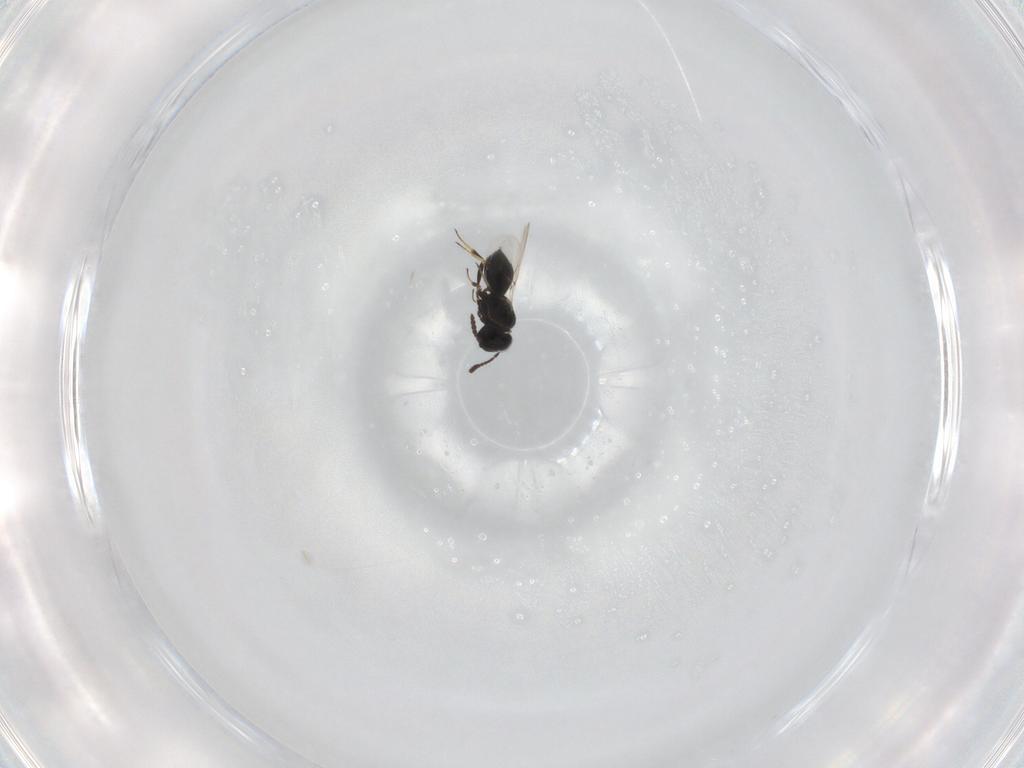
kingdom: Animalia
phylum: Arthropoda
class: Insecta
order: Hymenoptera
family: Scelionidae
